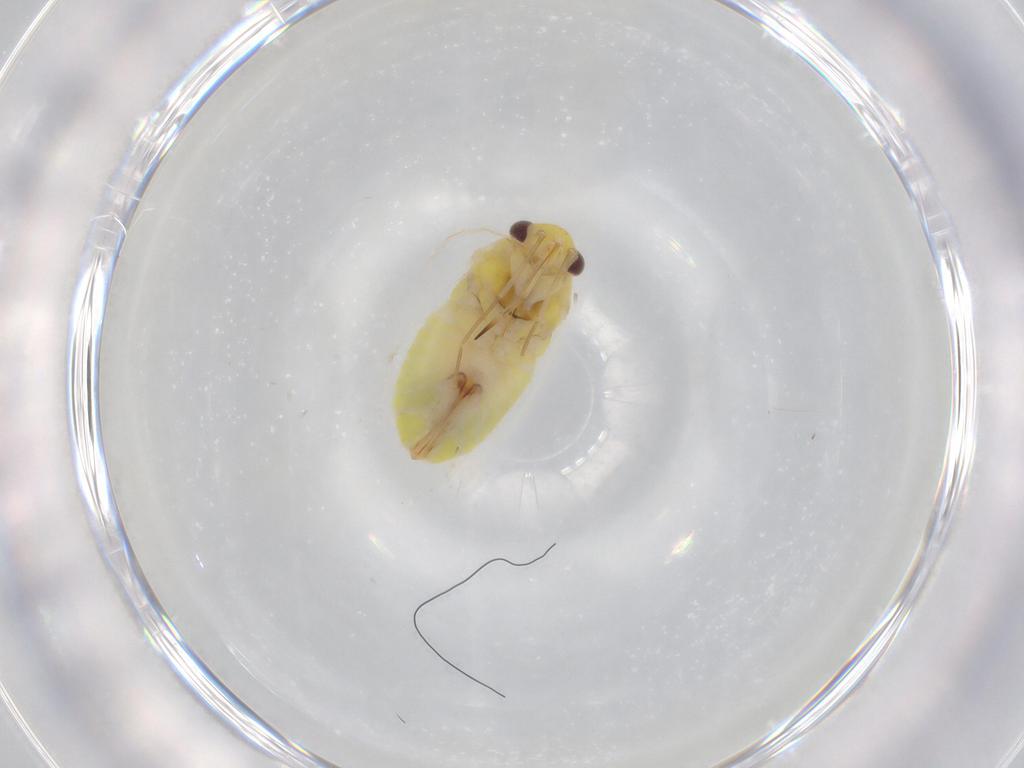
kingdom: Animalia
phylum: Arthropoda
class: Insecta
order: Hemiptera
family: Miridae
